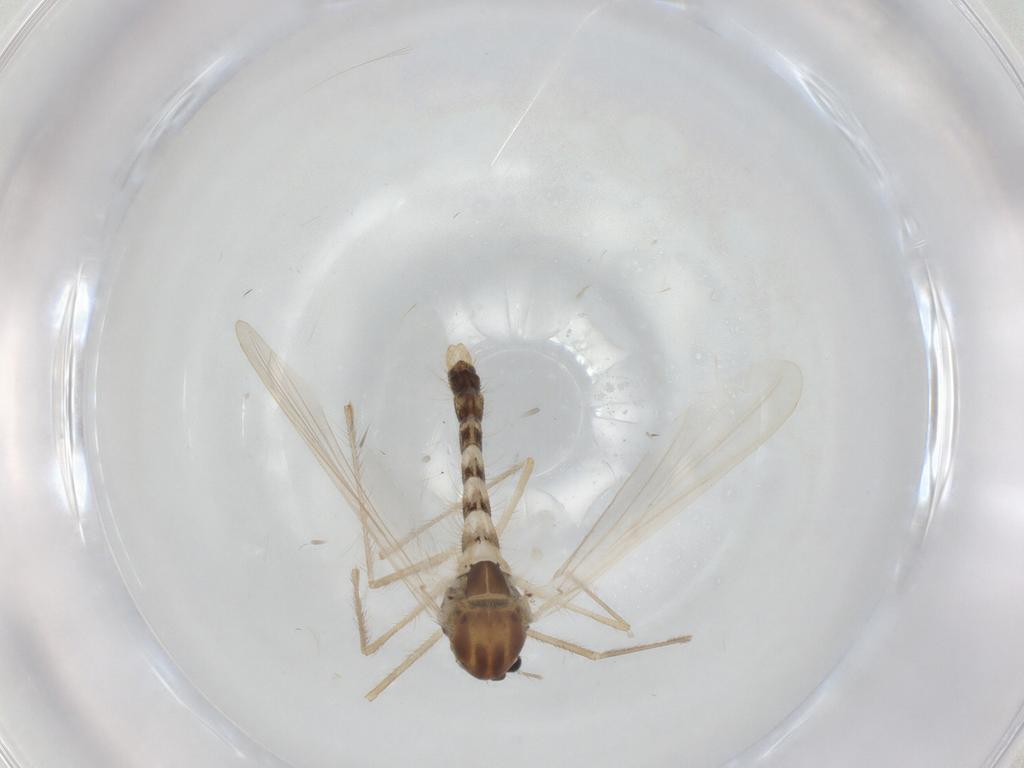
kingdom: Animalia
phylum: Arthropoda
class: Insecta
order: Diptera
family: Chironomidae
